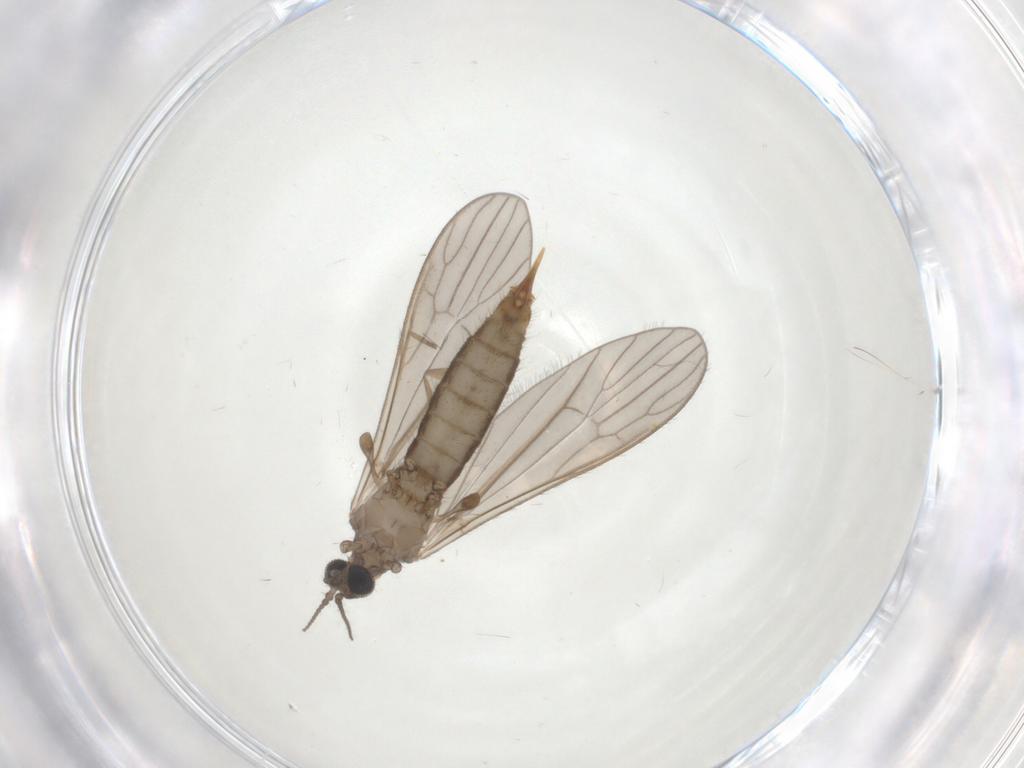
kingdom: Animalia
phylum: Arthropoda
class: Insecta
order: Diptera
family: Limoniidae
